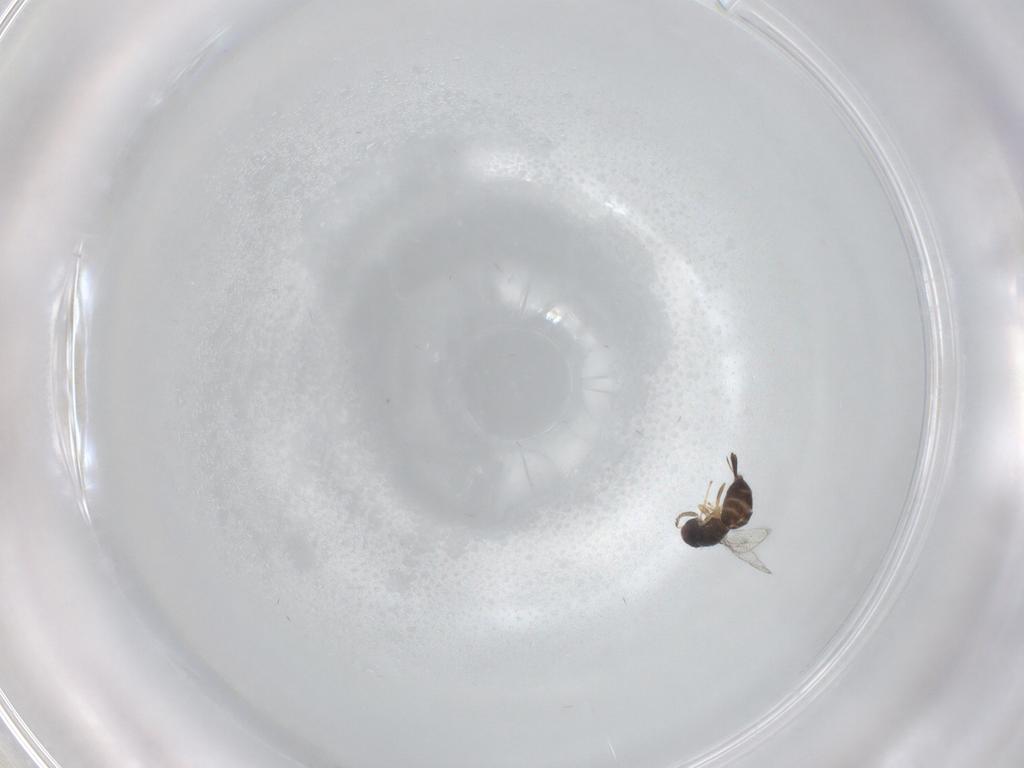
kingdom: Animalia
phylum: Arthropoda
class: Insecta
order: Hymenoptera
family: Torymidae
